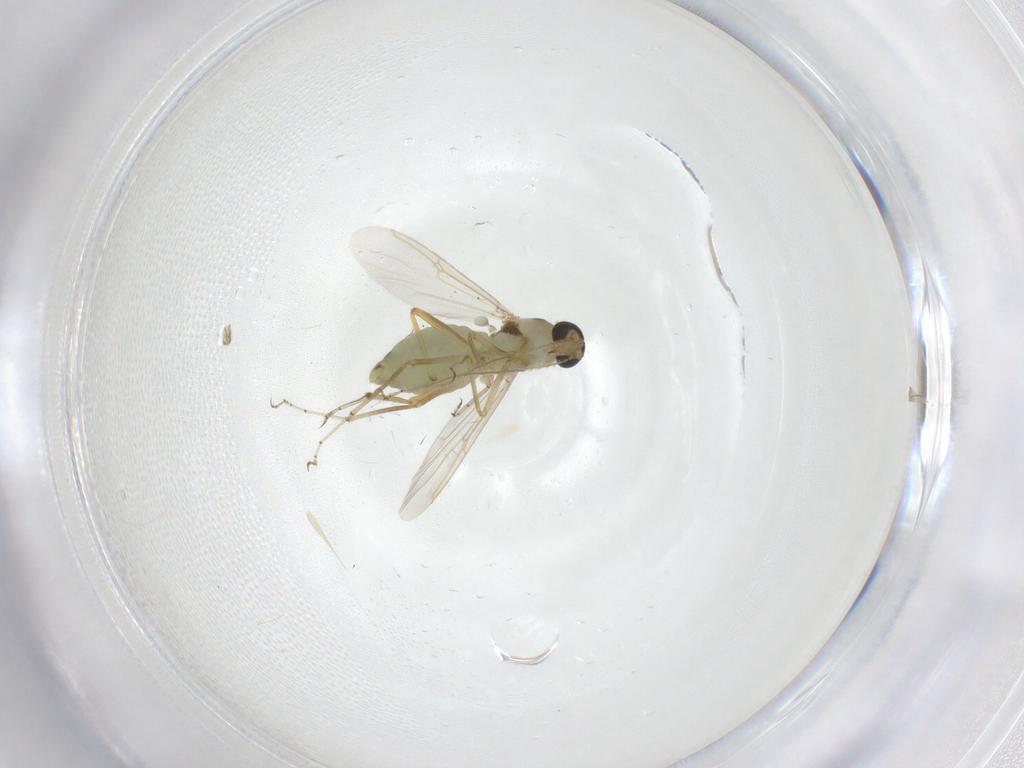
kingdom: Animalia
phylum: Arthropoda
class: Insecta
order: Diptera
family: Ceratopogonidae
